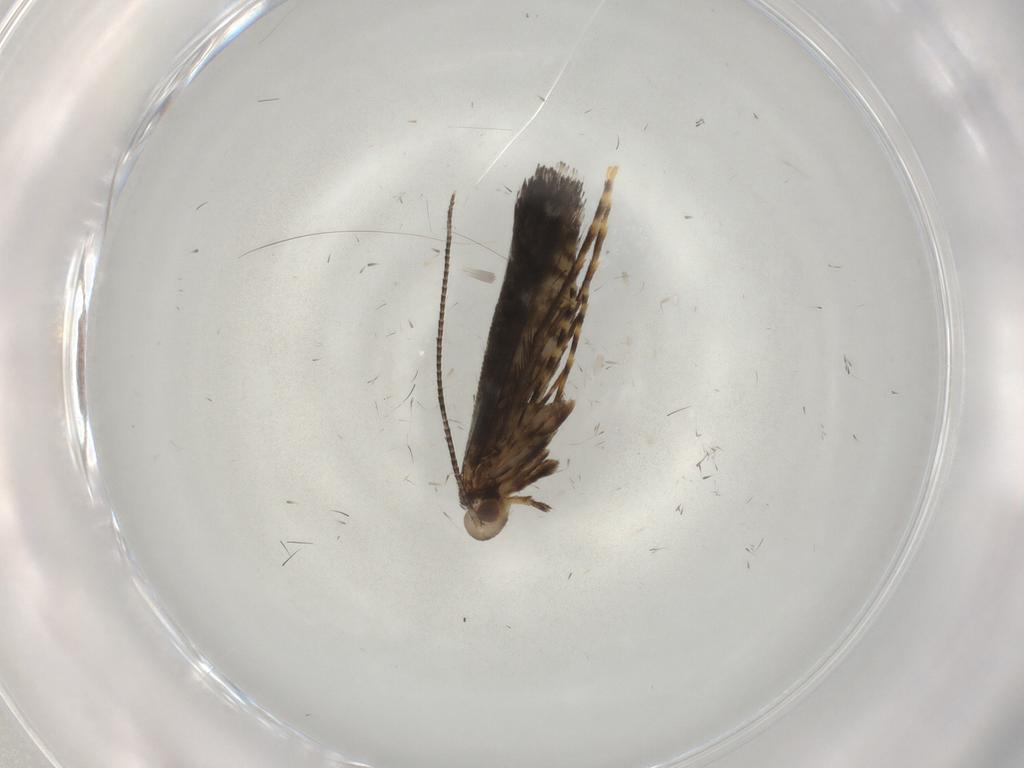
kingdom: Animalia
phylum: Arthropoda
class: Insecta
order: Lepidoptera
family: Gracillariidae
